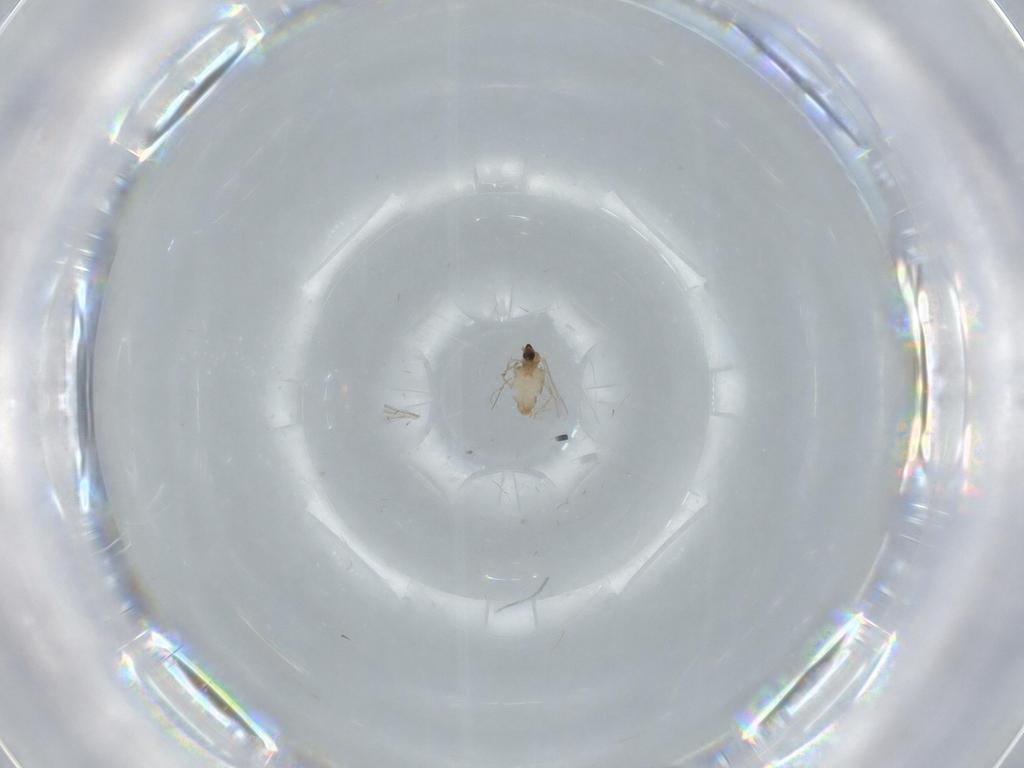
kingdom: Animalia
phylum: Arthropoda
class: Insecta
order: Diptera
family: Cecidomyiidae
